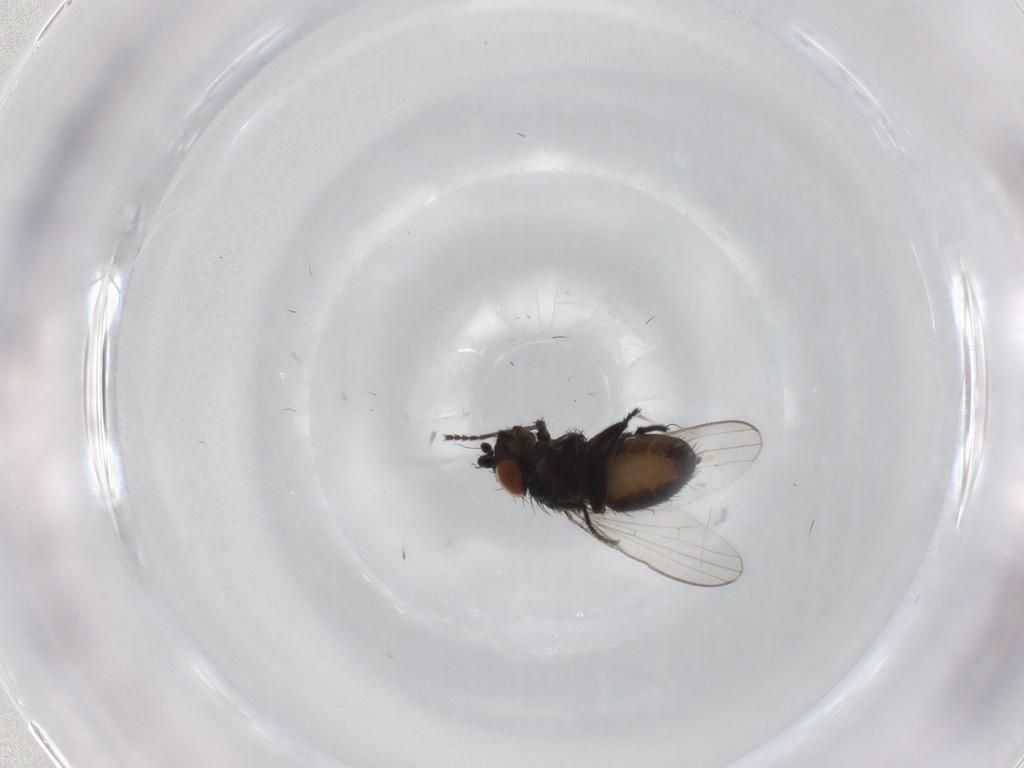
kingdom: Animalia
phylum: Arthropoda
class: Insecta
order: Diptera
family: Milichiidae
